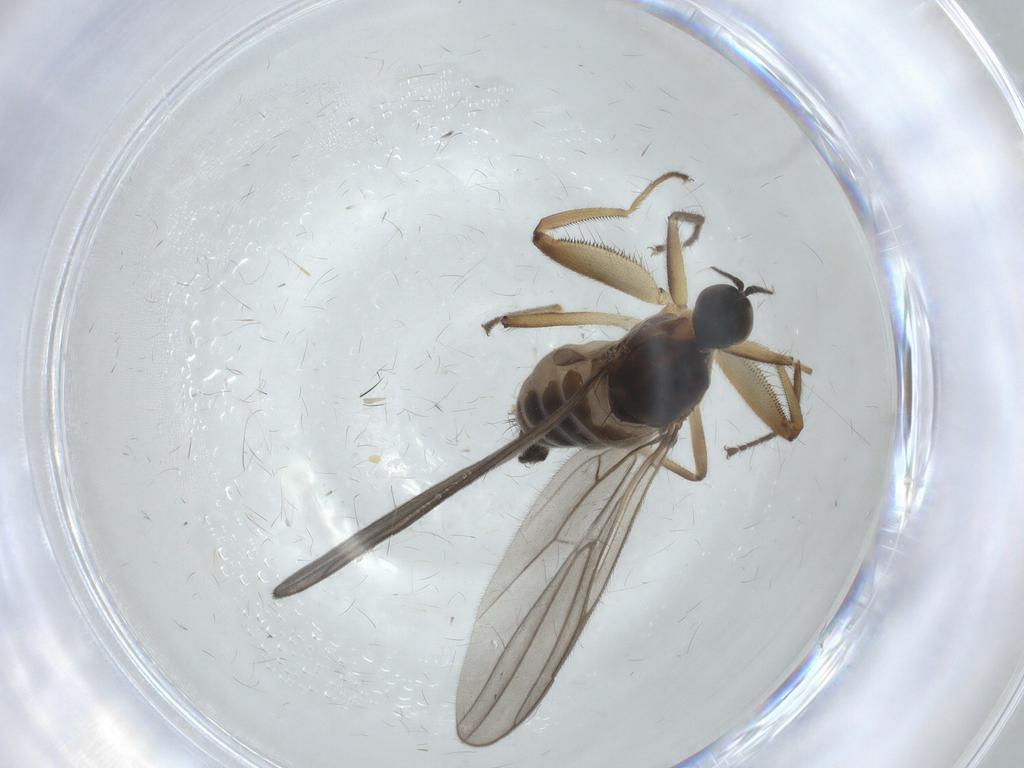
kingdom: Animalia
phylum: Arthropoda
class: Insecta
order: Diptera
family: Hybotidae
